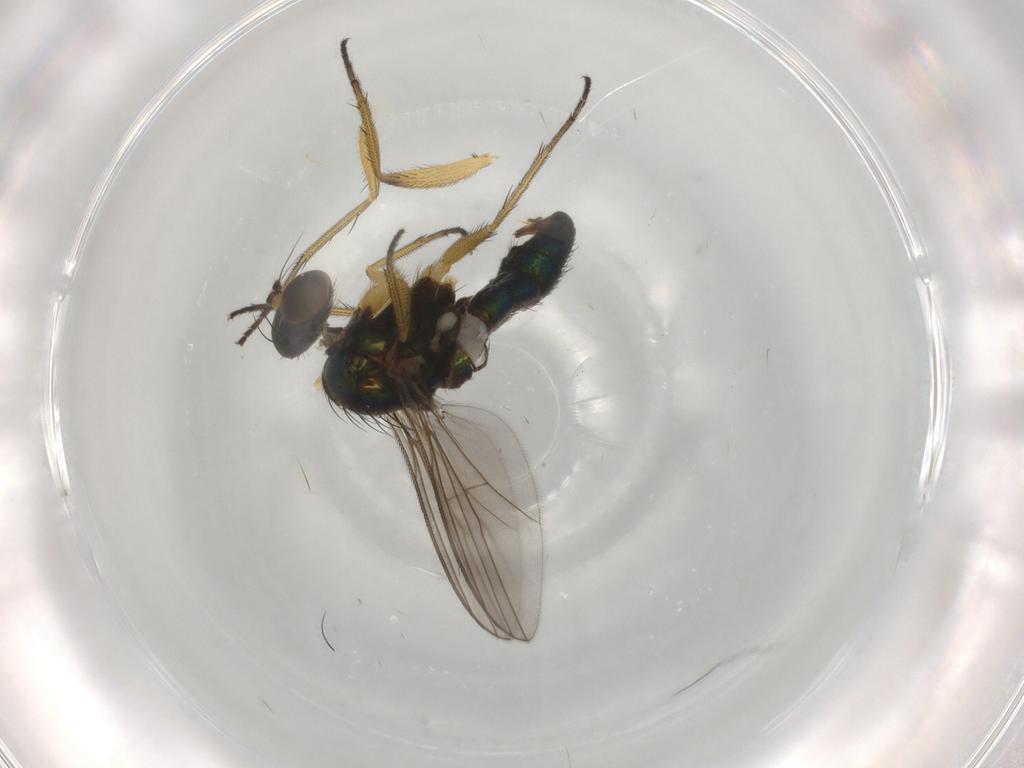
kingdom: Animalia
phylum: Arthropoda
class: Insecta
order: Diptera
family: Dolichopodidae
